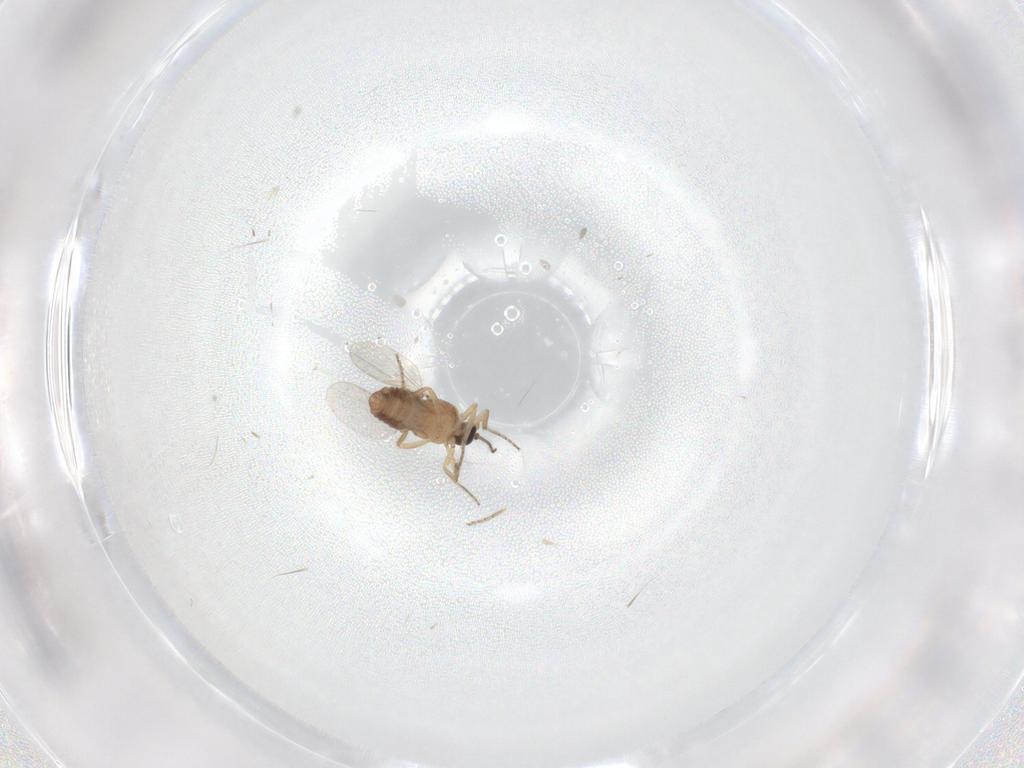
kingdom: Animalia
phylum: Arthropoda
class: Insecta
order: Diptera
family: Ceratopogonidae
